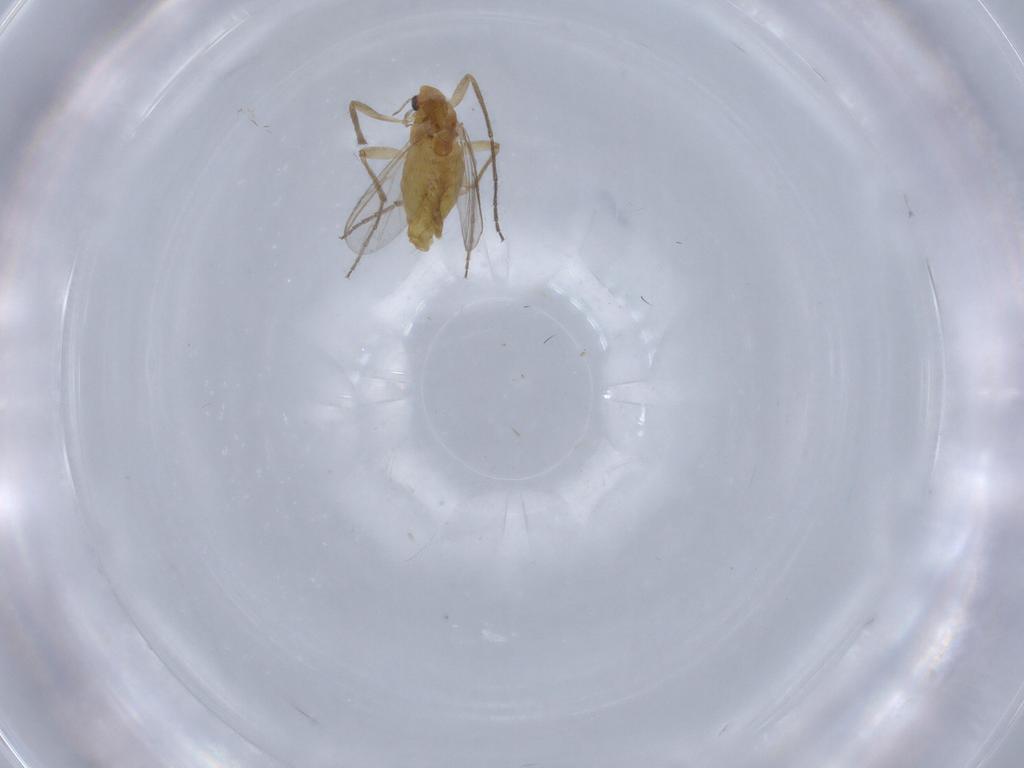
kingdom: Animalia
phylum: Arthropoda
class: Insecta
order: Diptera
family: Chironomidae
